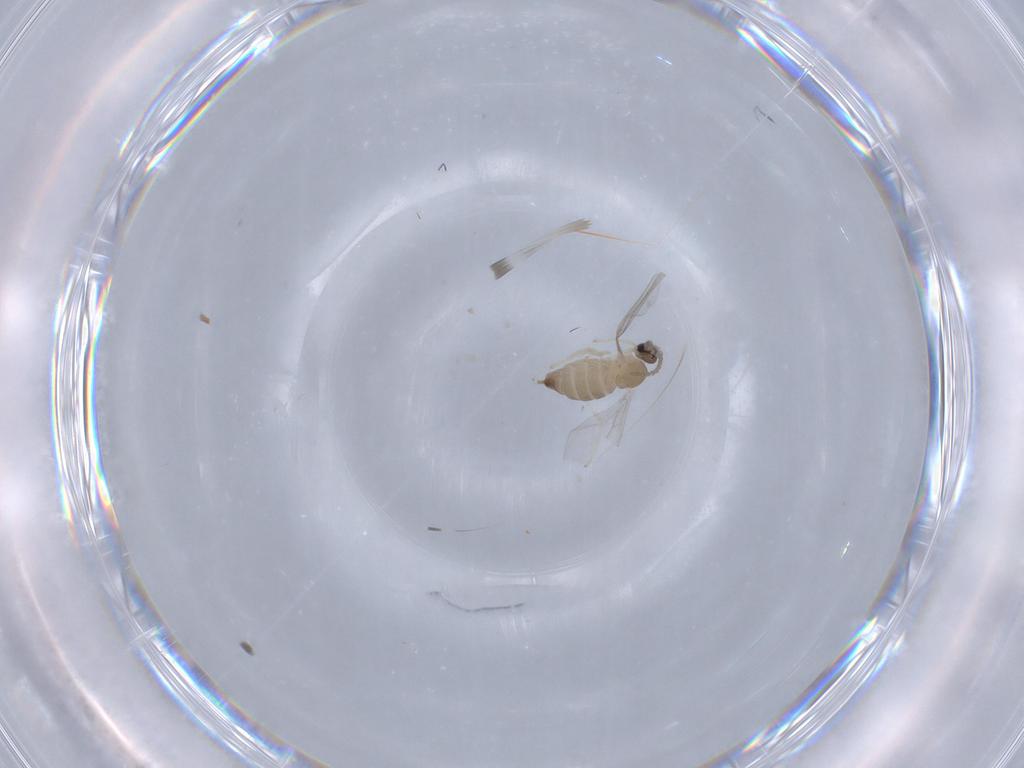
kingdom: Animalia
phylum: Arthropoda
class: Insecta
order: Diptera
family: Cecidomyiidae
